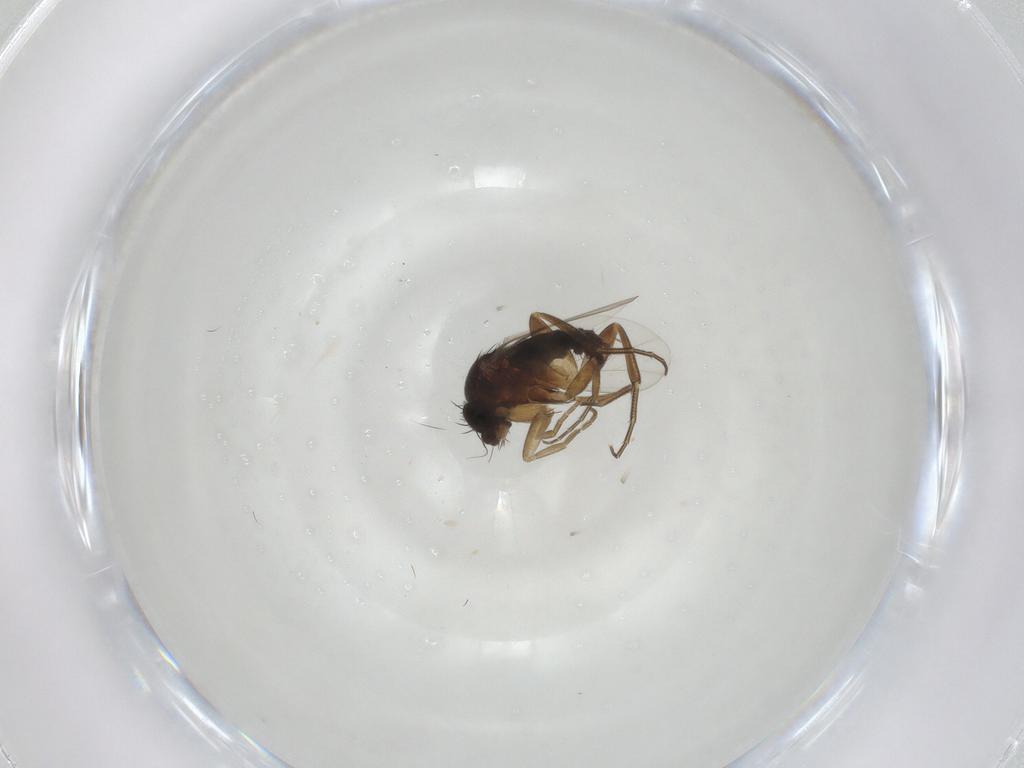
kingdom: Animalia
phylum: Arthropoda
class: Insecta
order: Diptera
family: Phoridae
